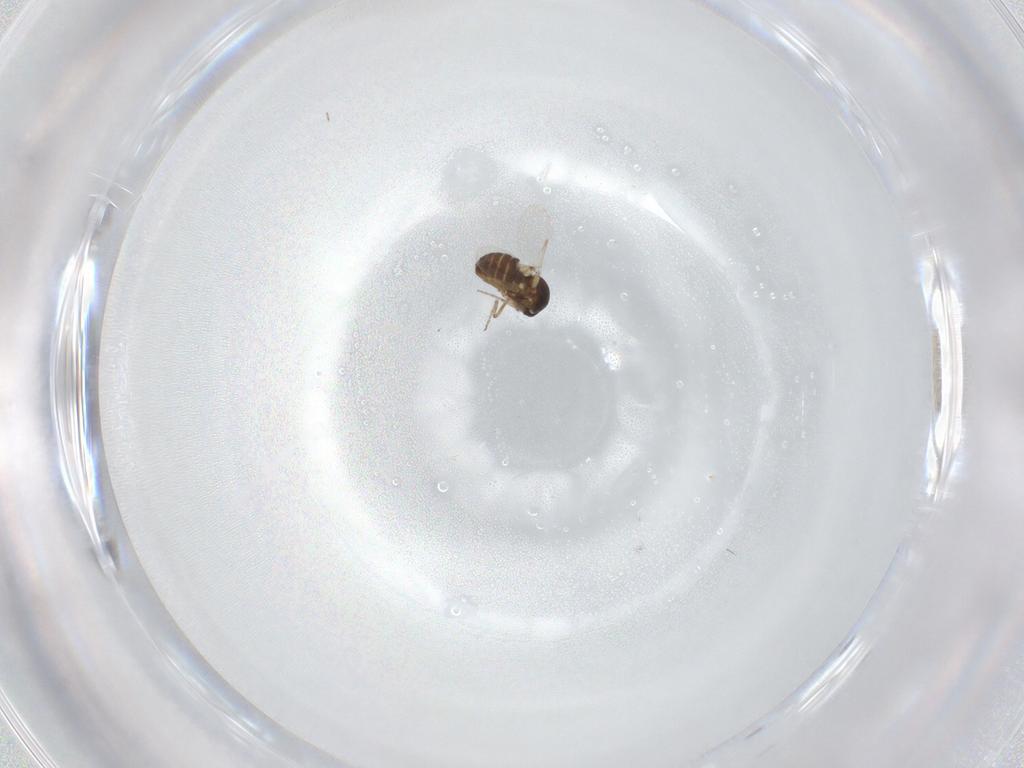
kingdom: Animalia
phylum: Arthropoda
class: Insecta
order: Diptera
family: Ceratopogonidae
